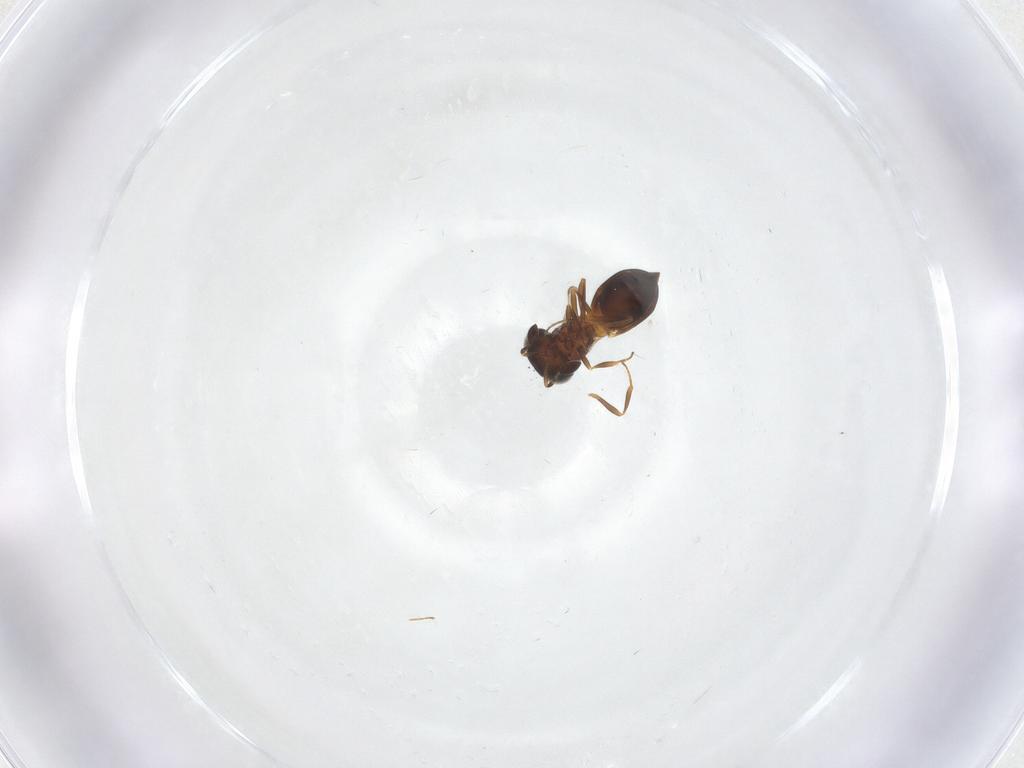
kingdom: Animalia
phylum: Arthropoda
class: Insecta
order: Hymenoptera
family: Scelionidae
